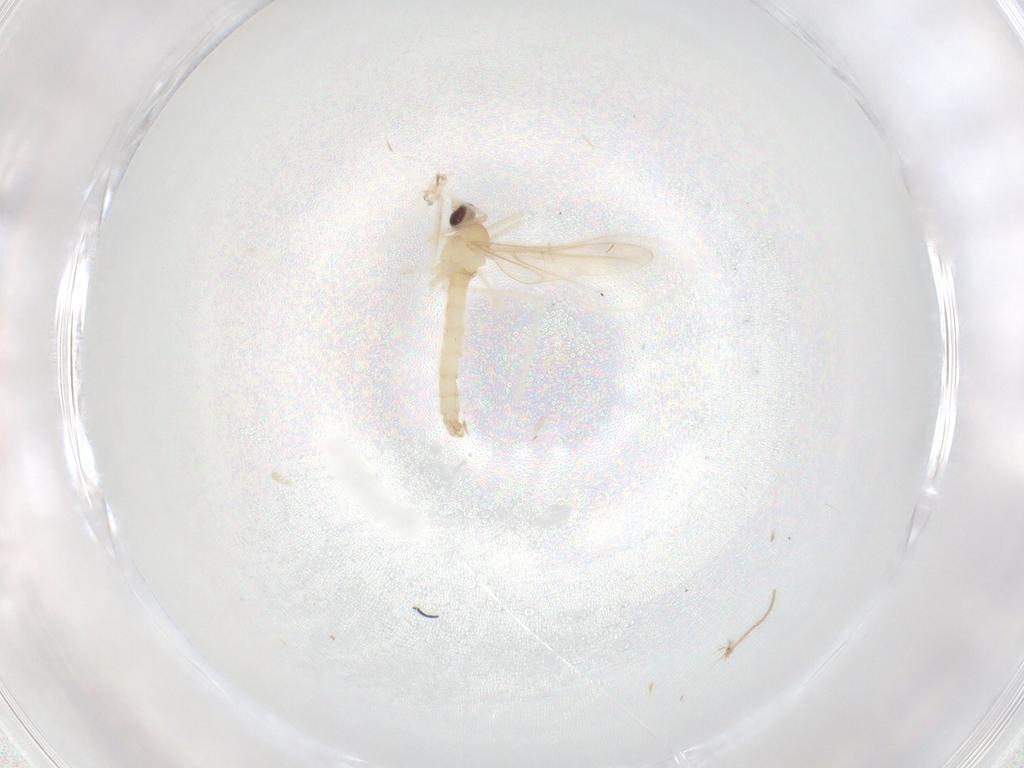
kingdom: Animalia
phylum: Arthropoda
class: Insecta
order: Diptera
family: Cecidomyiidae
